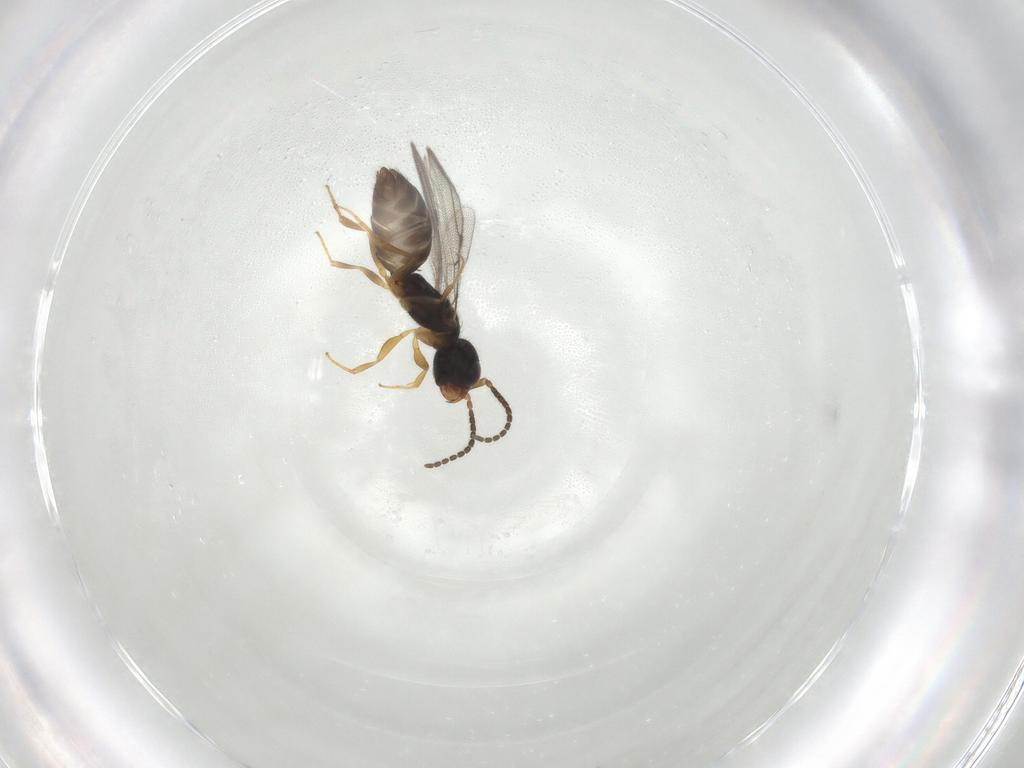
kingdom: Animalia
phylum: Arthropoda
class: Insecta
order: Hymenoptera
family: Bethylidae
